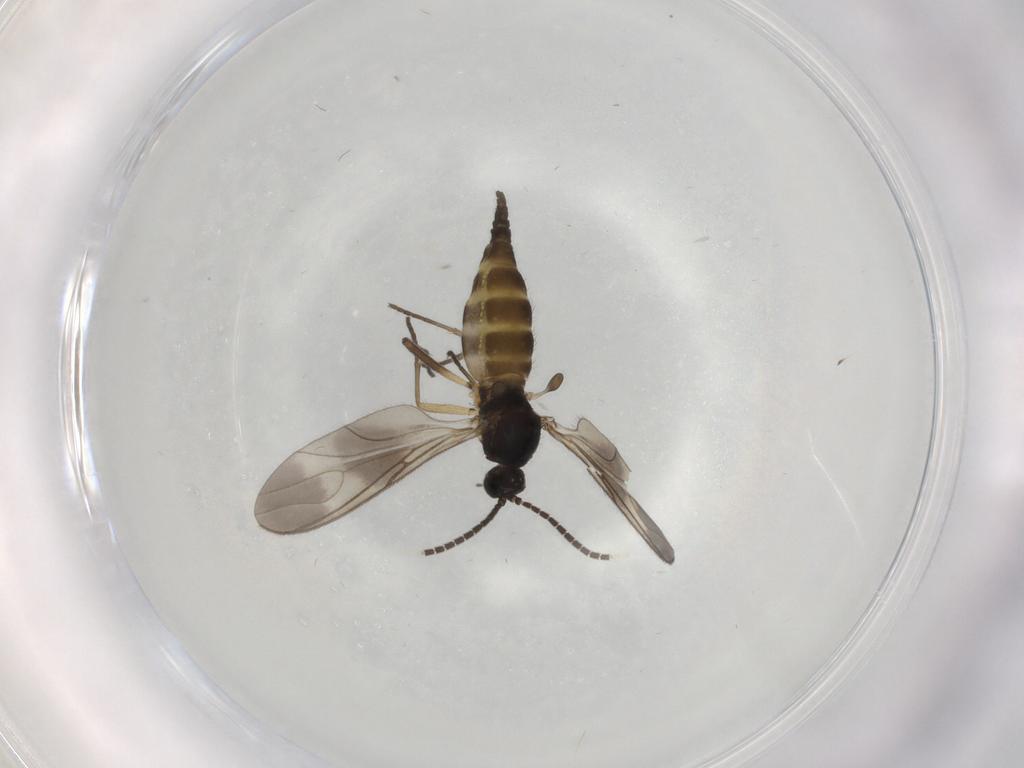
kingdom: Animalia
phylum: Arthropoda
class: Insecta
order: Diptera
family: Sciaridae
